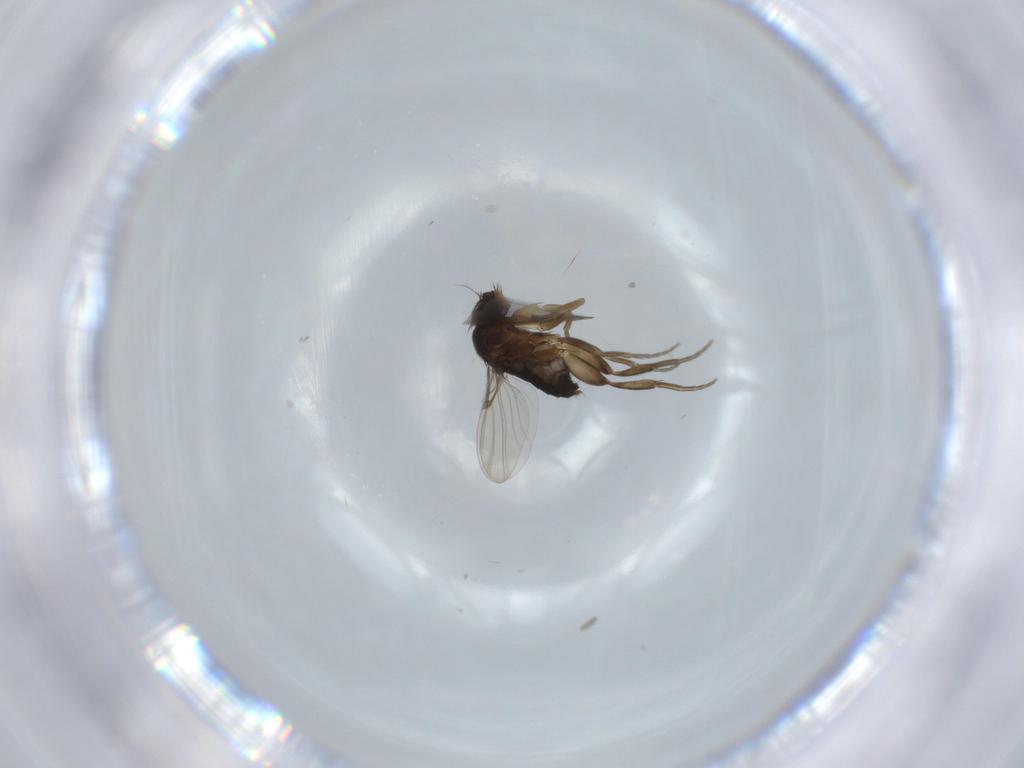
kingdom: Animalia
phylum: Arthropoda
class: Insecta
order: Diptera
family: Phoridae
